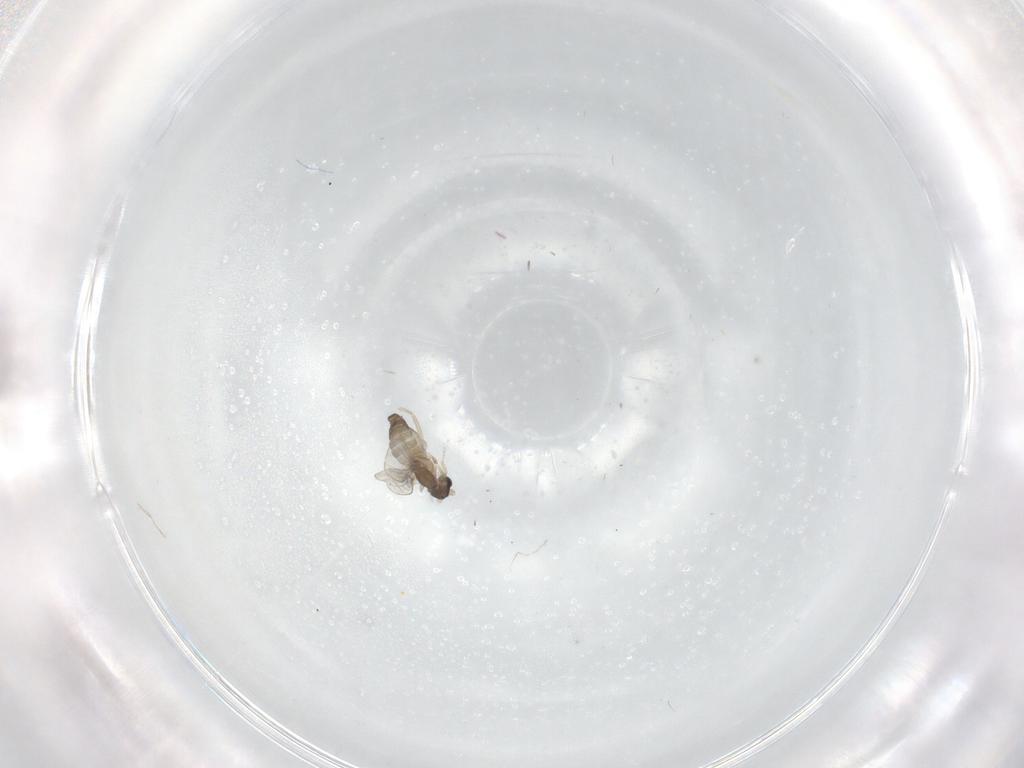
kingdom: Animalia
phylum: Arthropoda
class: Insecta
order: Diptera
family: Cecidomyiidae
